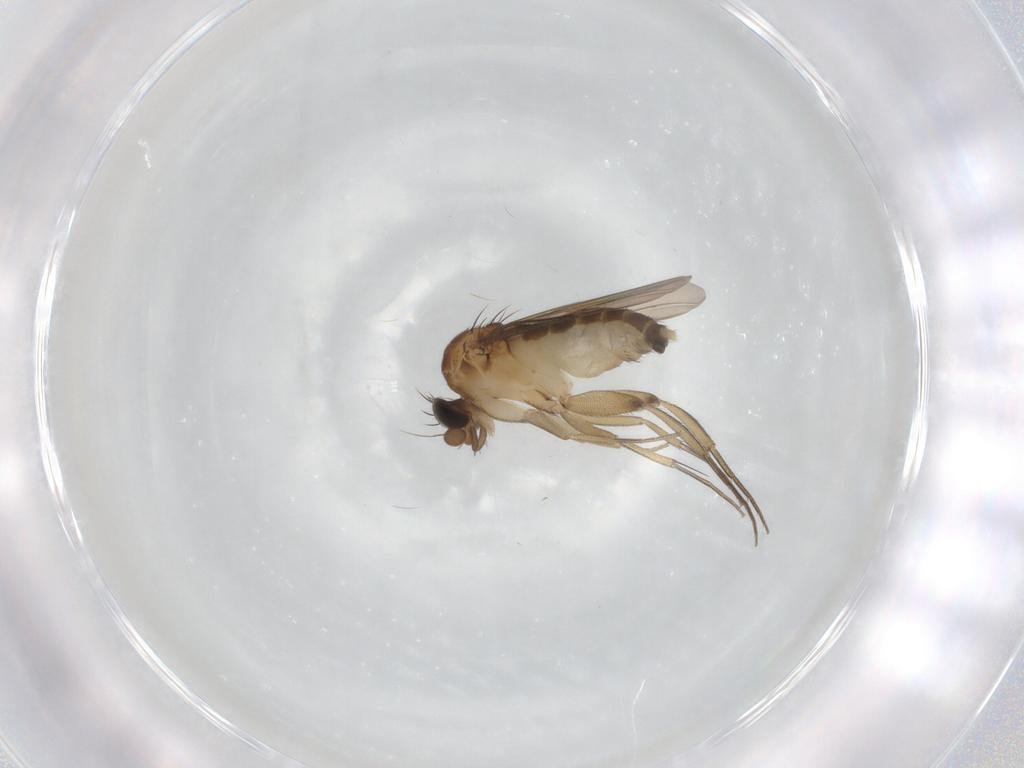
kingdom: Animalia
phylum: Arthropoda
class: Insecta
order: Diptera
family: Phoridae
